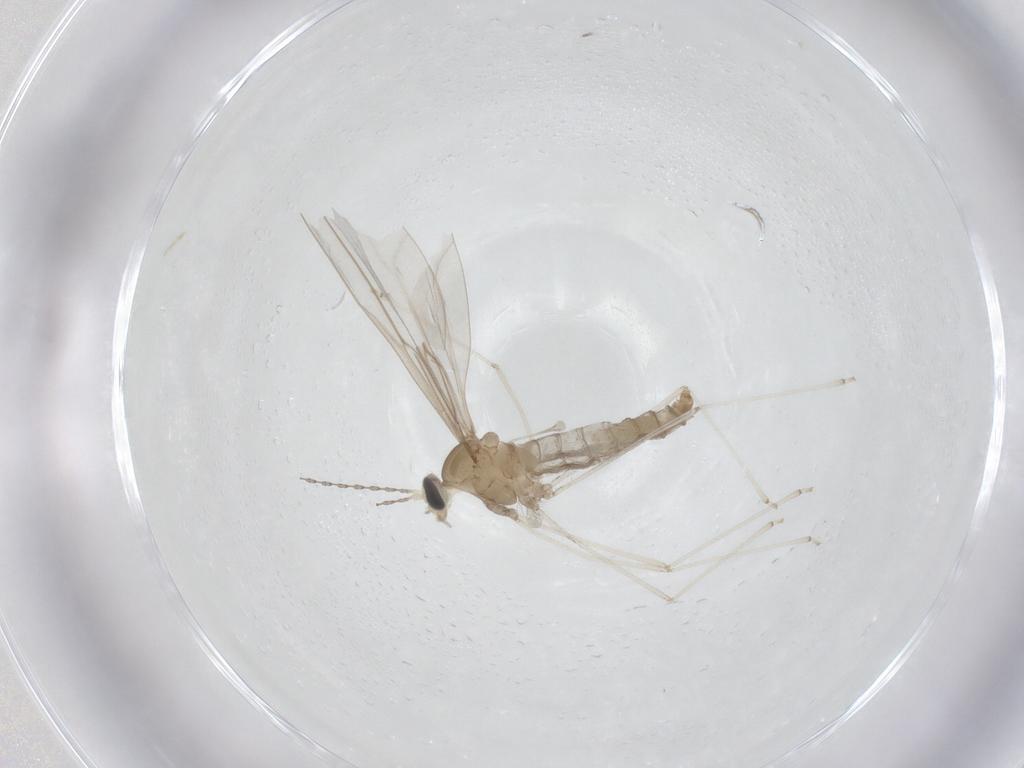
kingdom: Animalia
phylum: Arthropoda
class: Insecta
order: Diptera
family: Cecidomyiidae
